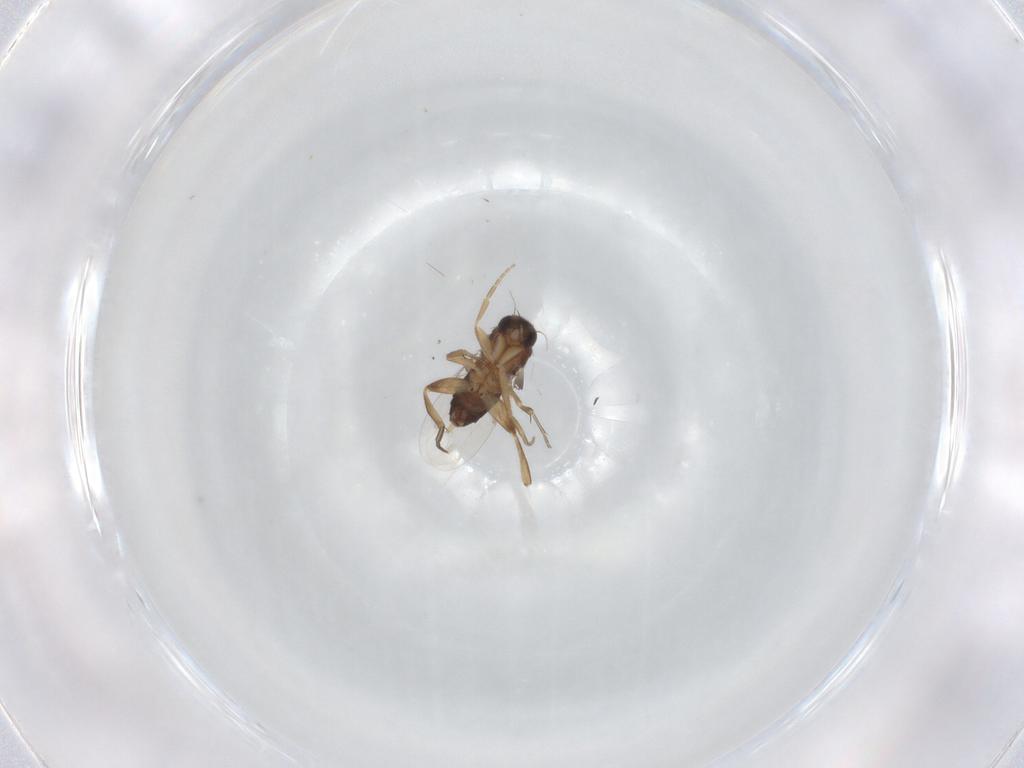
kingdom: Animalia
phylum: Arthropoda
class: Insecta
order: Diptera
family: Phoridae
